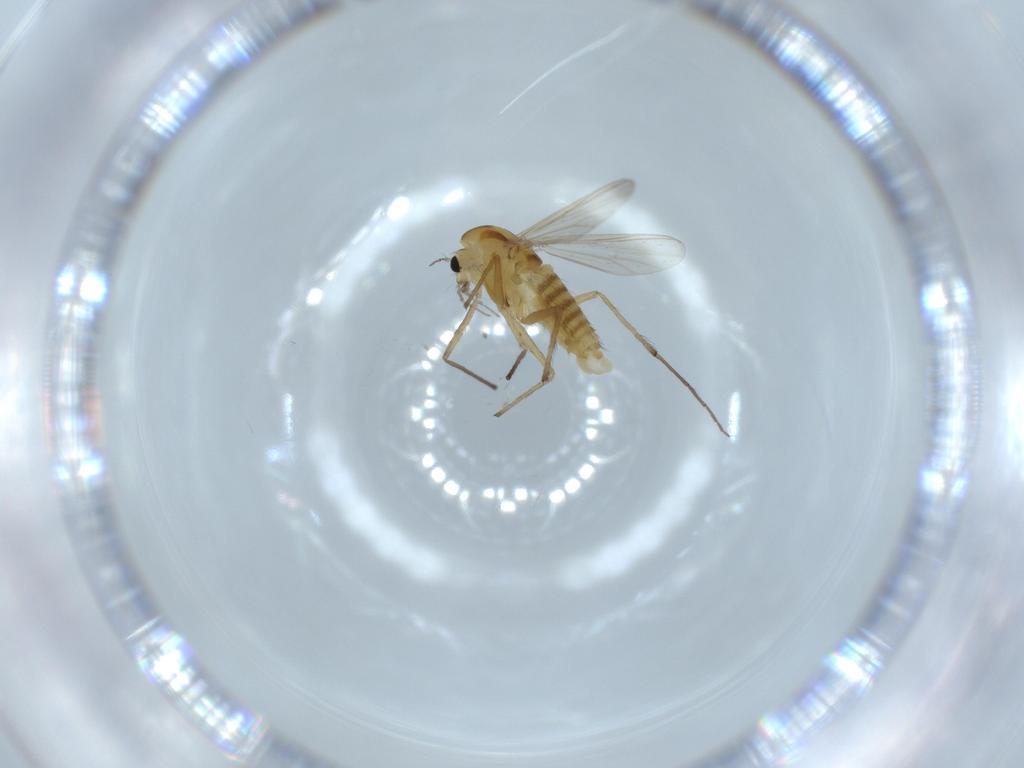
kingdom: Animalia
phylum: Arthropoda
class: Insecta
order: Diptera
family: Chironomidae
